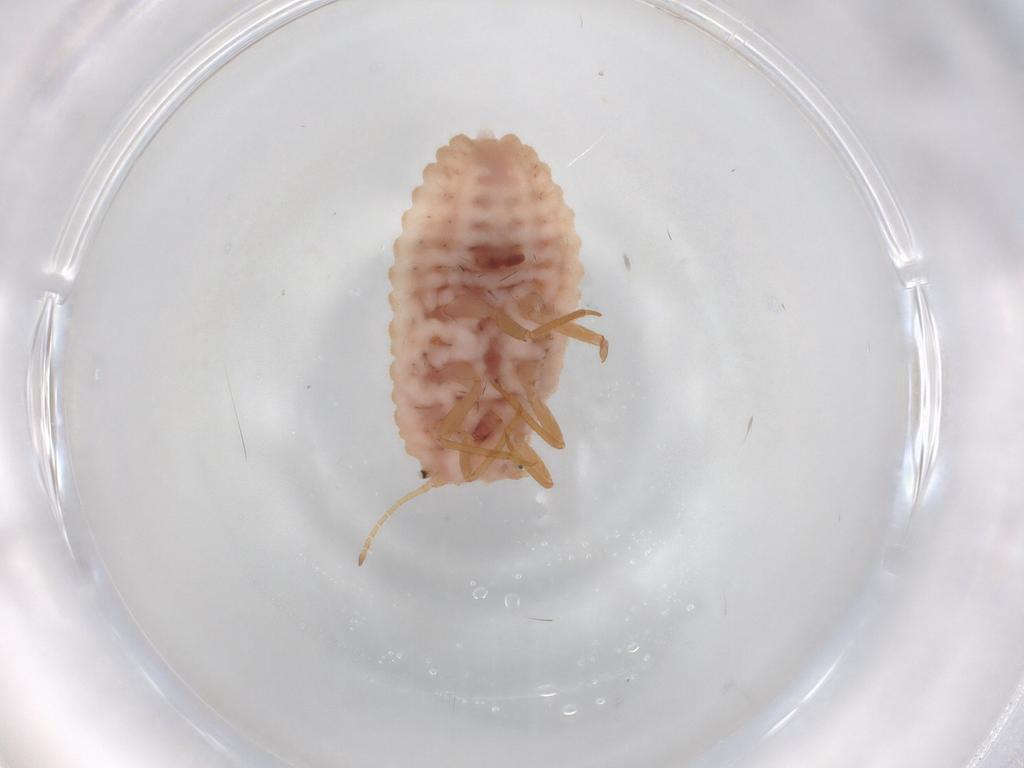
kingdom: Animalia
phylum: Arthropoda
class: Insecta
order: Hemiptera
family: Coccoidea_incertae_sedis
